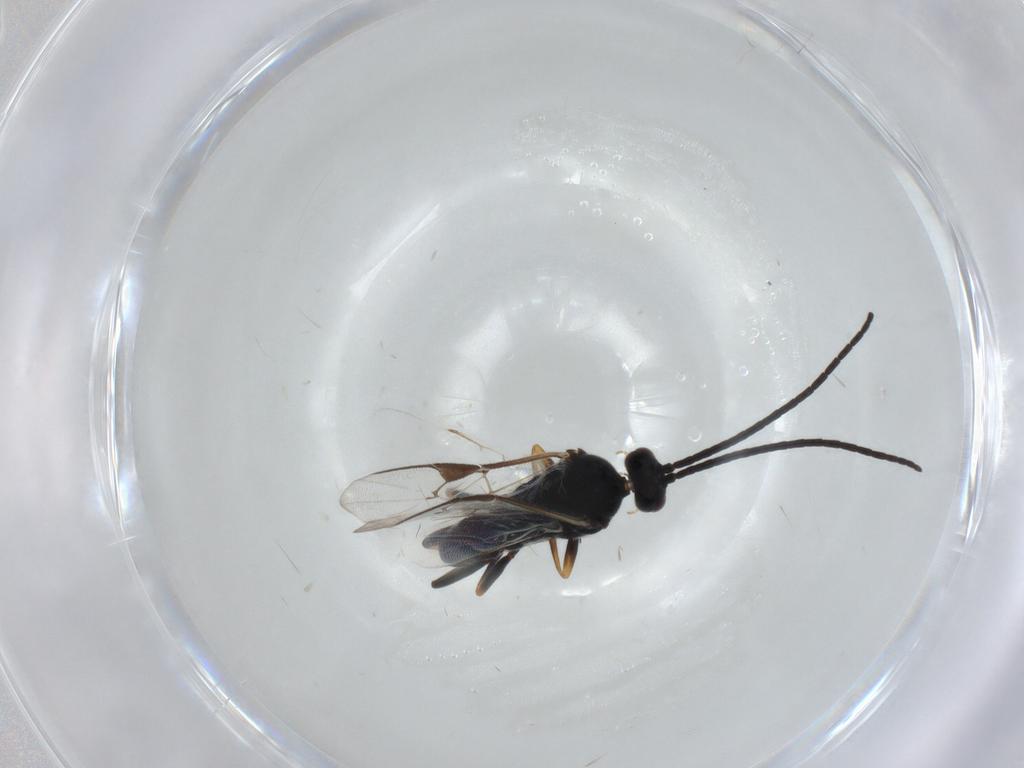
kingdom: Animalia
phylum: Arthropoda
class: Insecta
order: Hymenoptera
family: Braconidae
